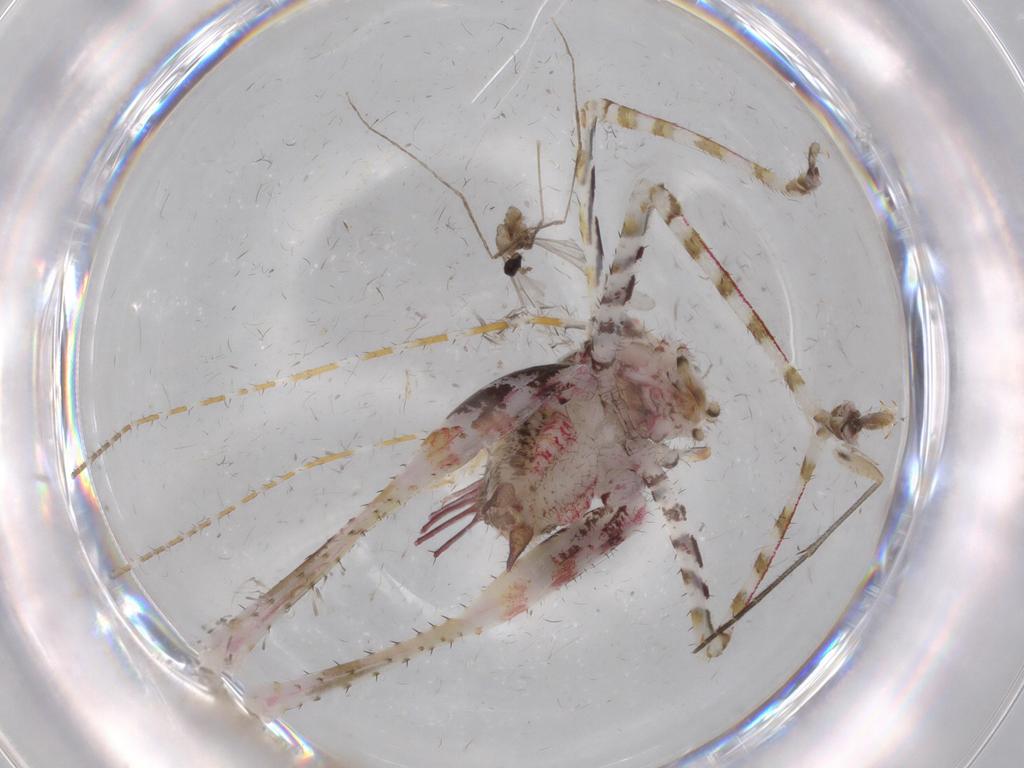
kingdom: Animalia
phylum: Arthropoda
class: Insecta
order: Orthoptera
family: Tettigoniidae
